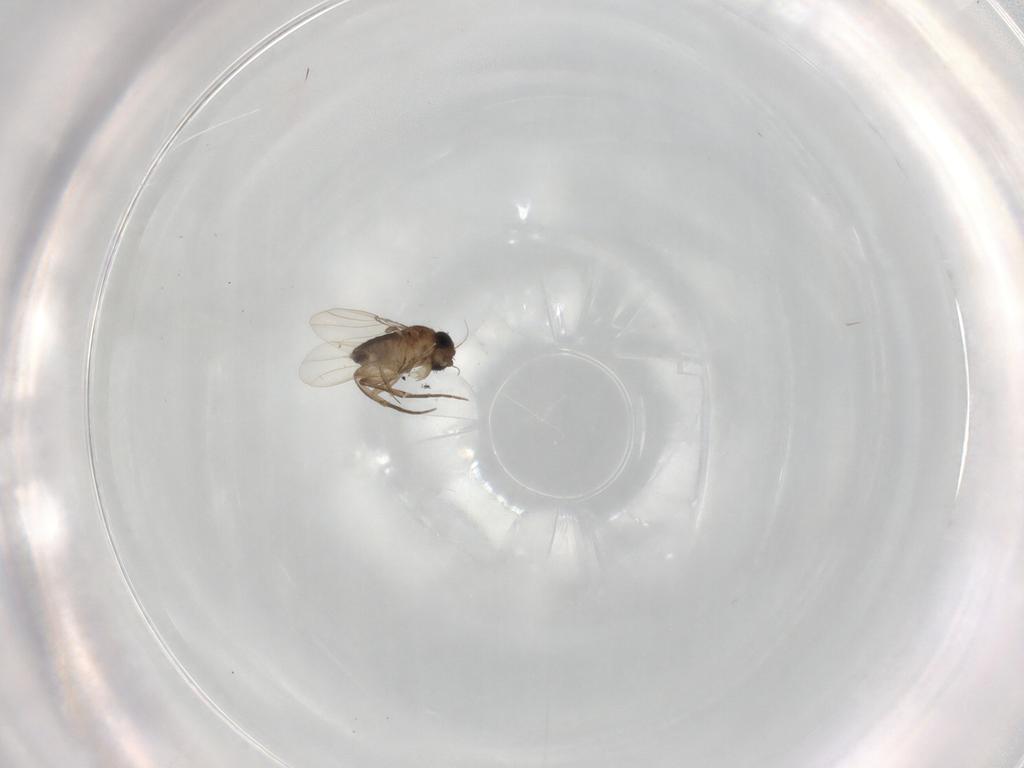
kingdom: Animalia
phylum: Arthropoda
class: Insecta
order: Diptera
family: Phoridae
